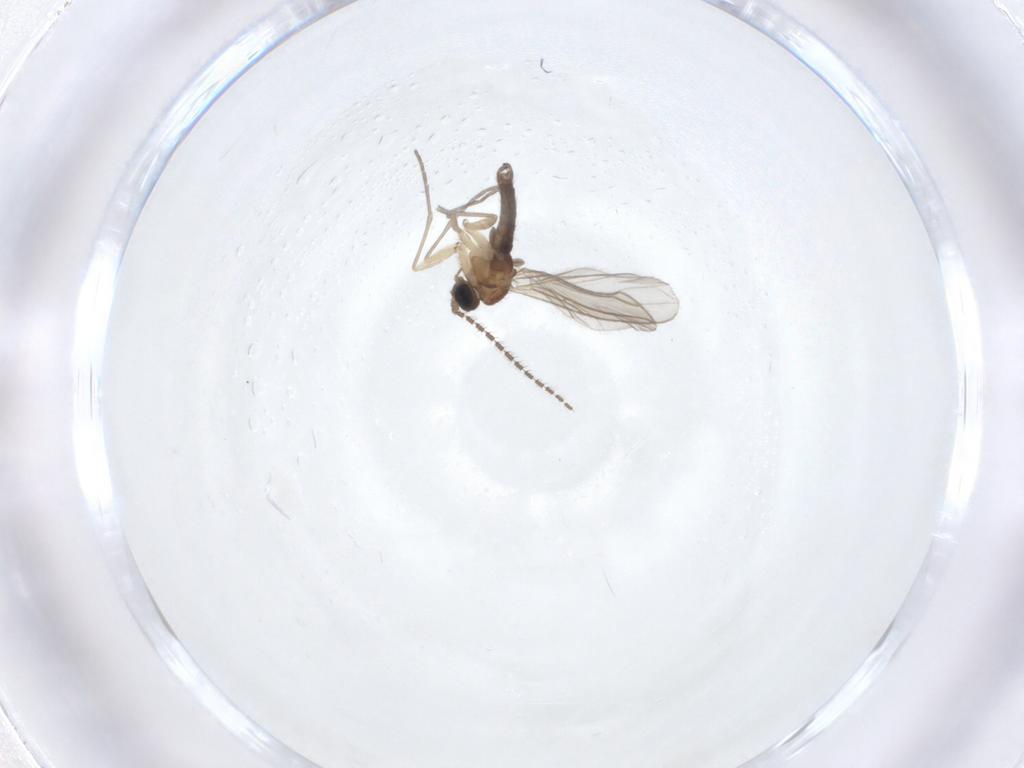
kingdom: Animalia
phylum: Arthropoda
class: Insecta
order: Diptera
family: Sciaridae
